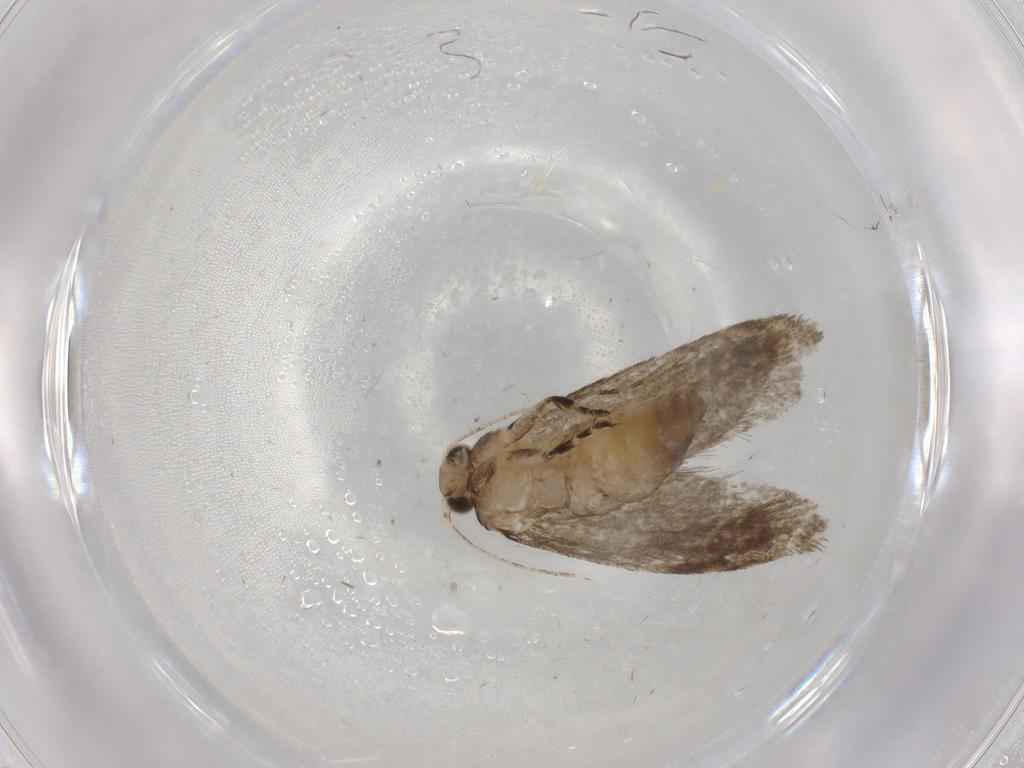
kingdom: Animalia
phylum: Arthropoda
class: Insecta
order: Lepidoptera
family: Tineidae
